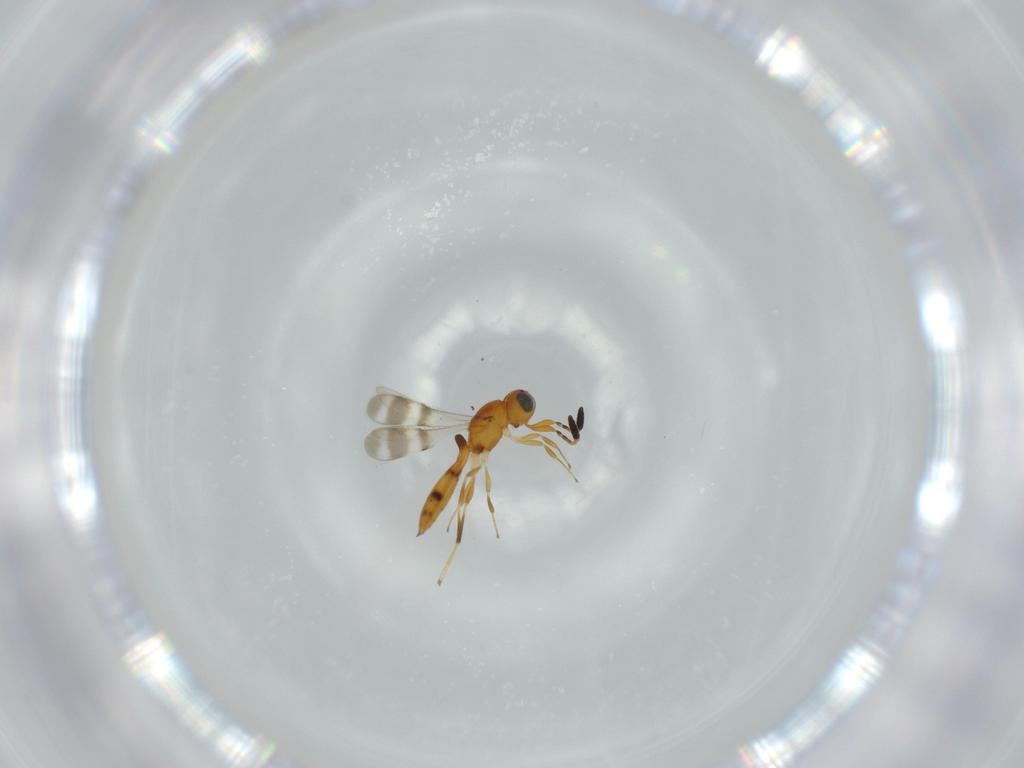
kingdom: Animalia
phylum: Arthropoda
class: Insecta
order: Hymenoptera
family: Scelionidae
